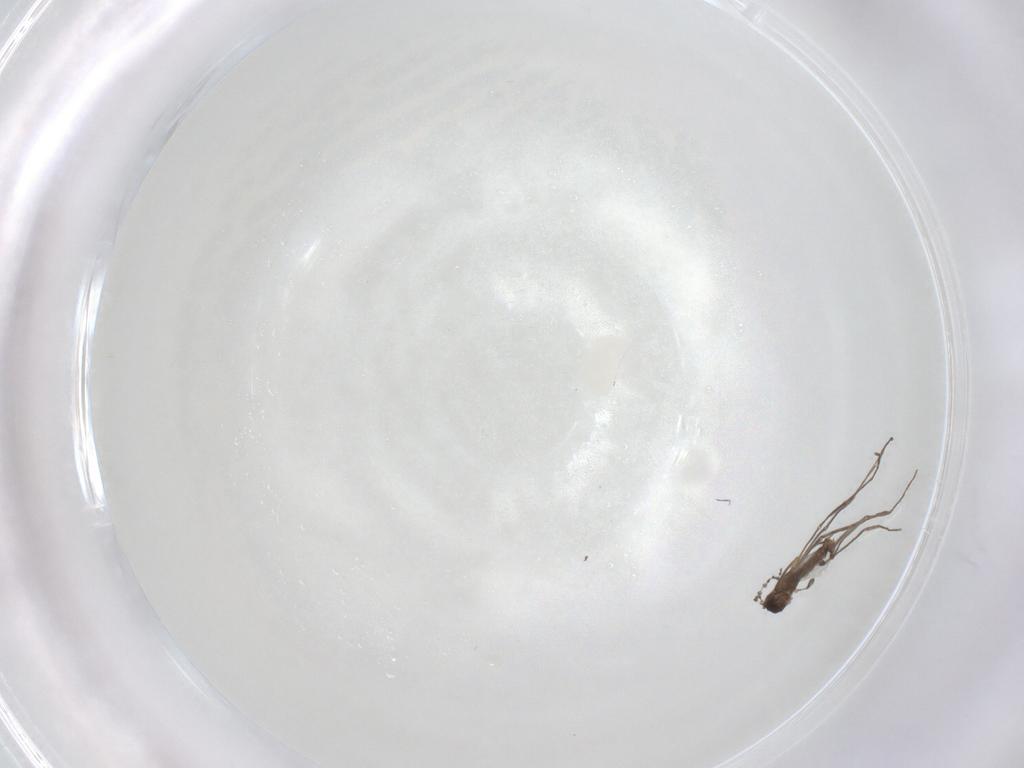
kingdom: Animalia
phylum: Arthropoda
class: Insecta
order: Diptera
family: Cecidomyiidae
